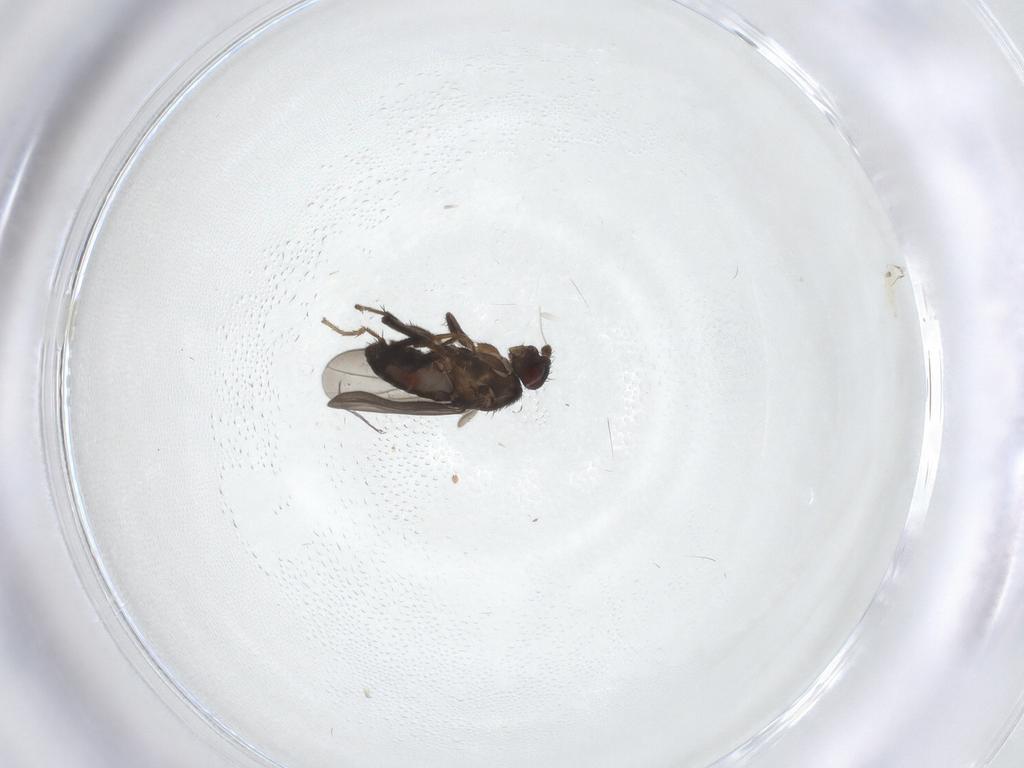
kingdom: Animalia
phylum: Arthropoda
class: Insecta
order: Diptera
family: Sphaeroceridae
